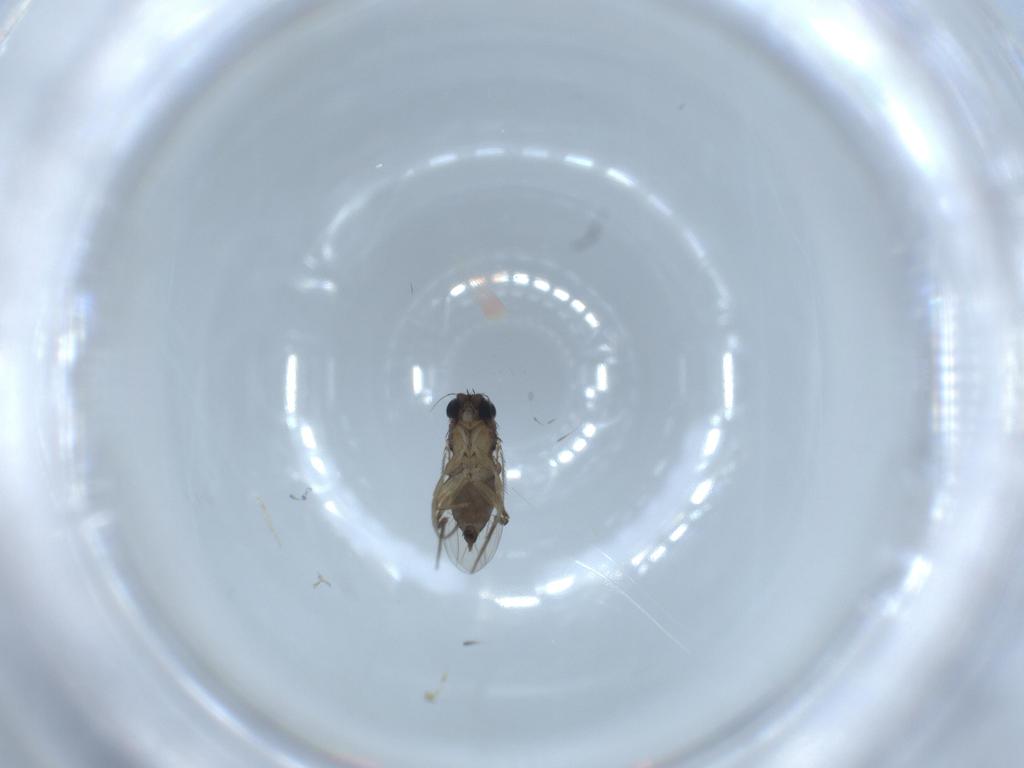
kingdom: Animalia
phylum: Arthropoda
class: Insecta
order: Diptera
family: Phoridae
